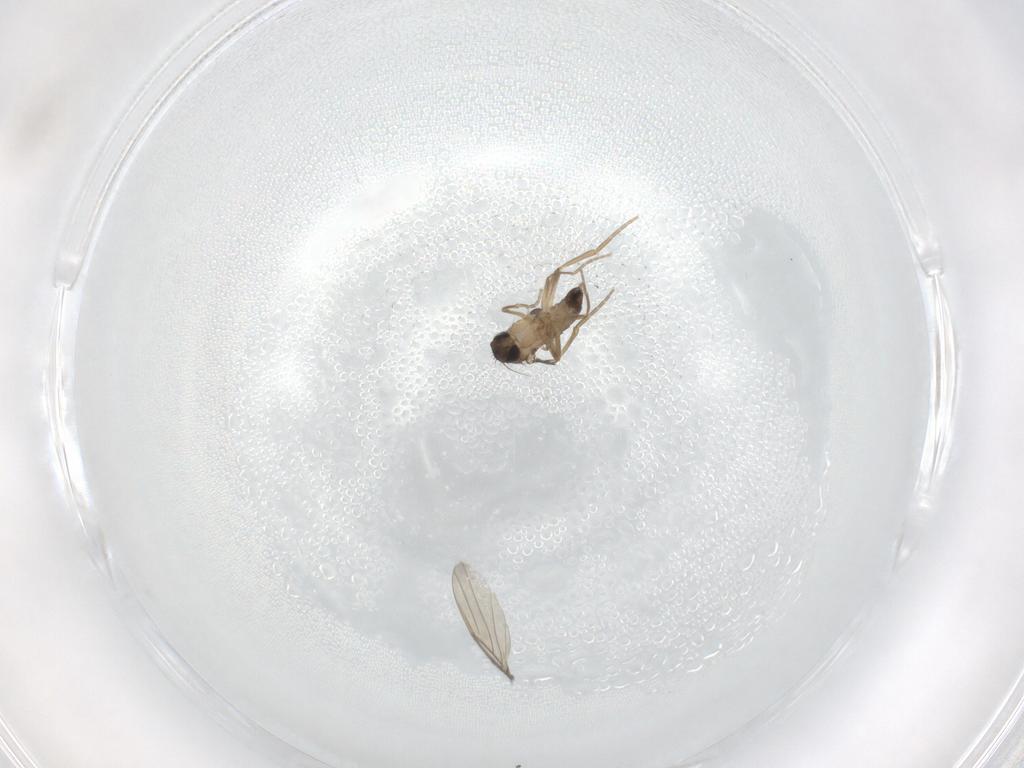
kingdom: Animalia
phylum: Arthropoda
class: Insecta
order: Diptera
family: Phoridae
